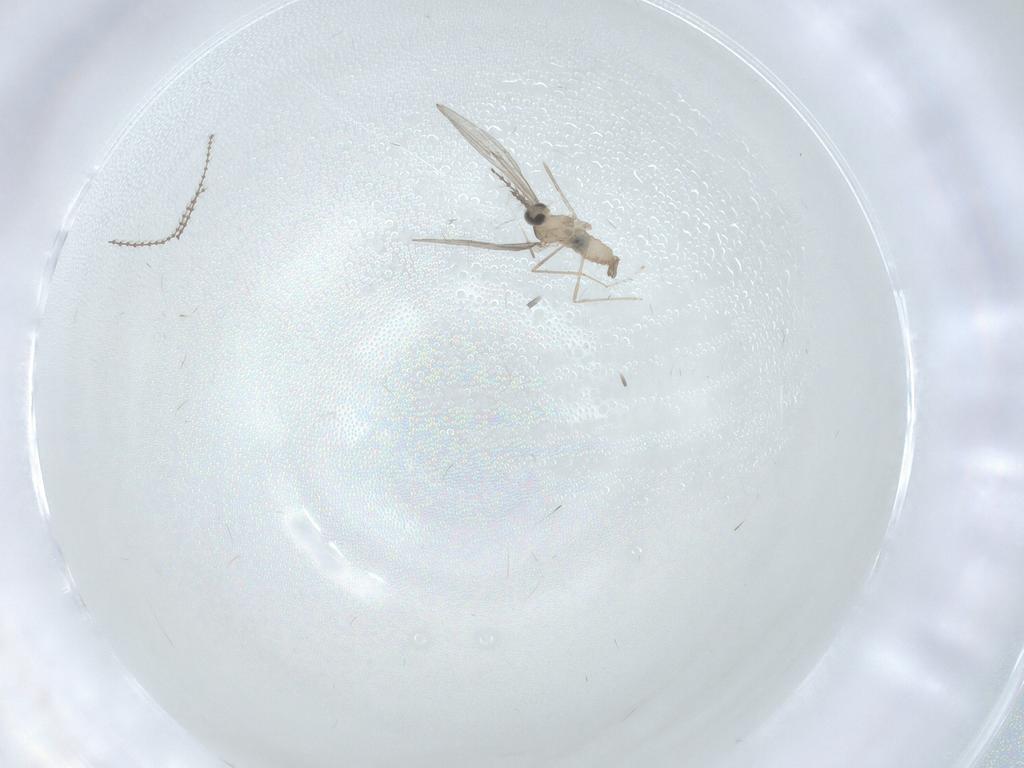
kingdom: Animalia
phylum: Arthropoda
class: Insecta
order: Diptera
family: Cecidomyiidae
